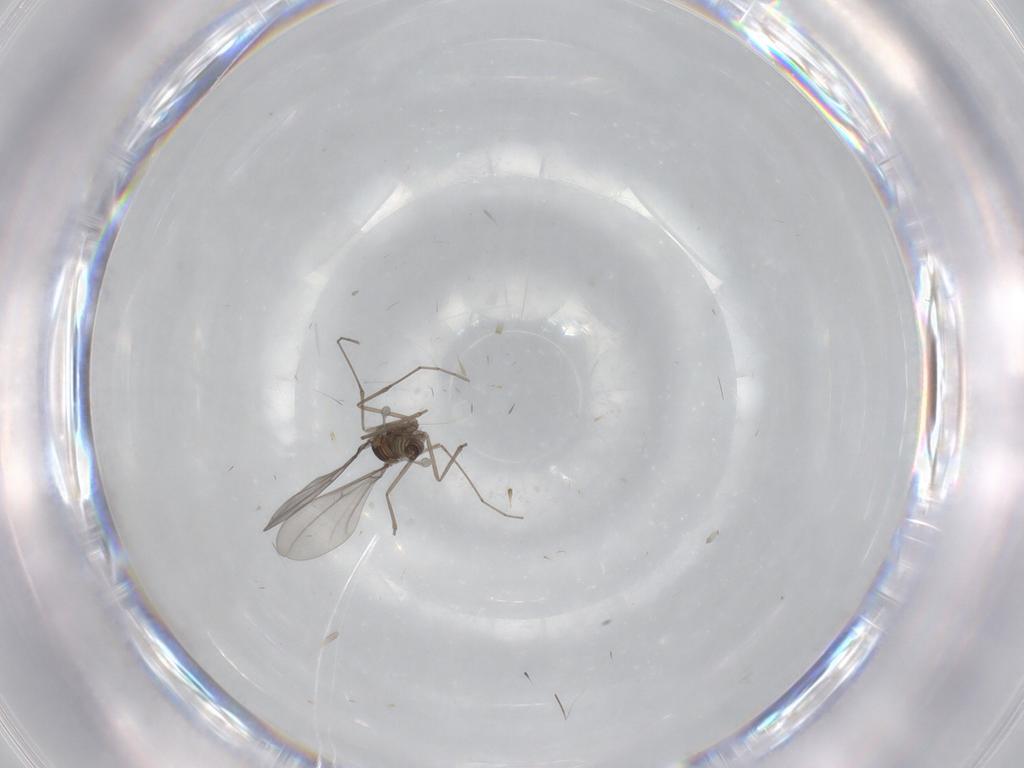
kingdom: Animalia
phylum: Arthropoda
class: Insecta
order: Diptera
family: Cecidomyiidae
